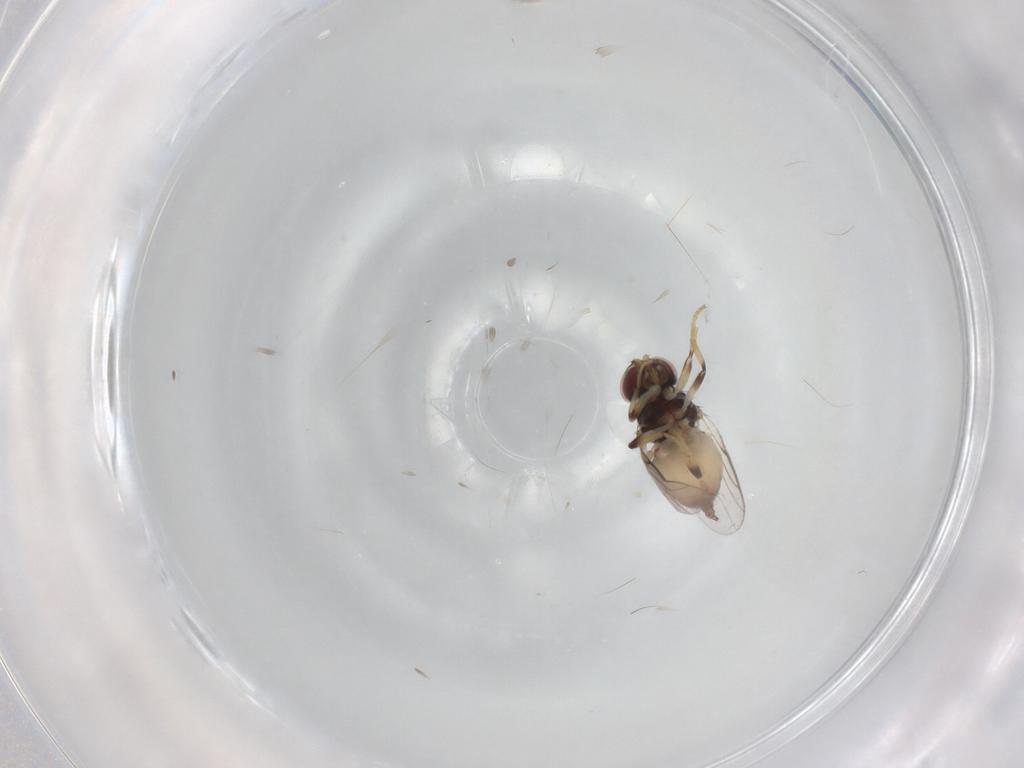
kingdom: Animalia
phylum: Arthropoda
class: Insecta
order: Diptera
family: Chloropidae
